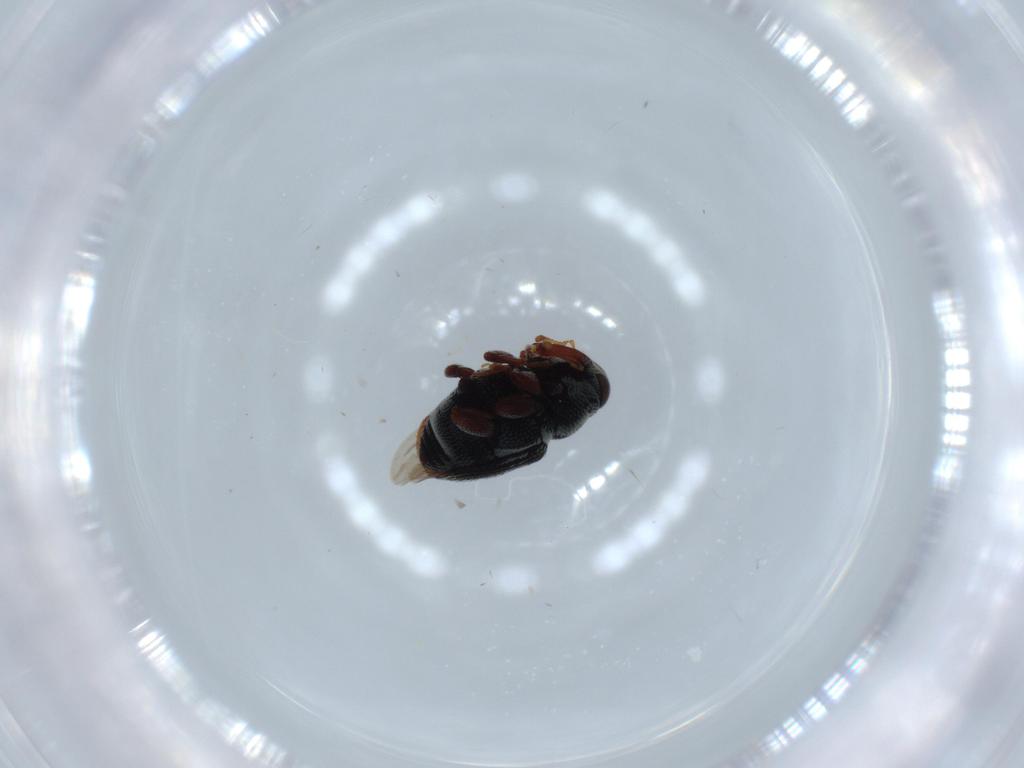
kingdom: Animalia
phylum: Arthropoda
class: Insecta
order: Coleoptera
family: Curculionidae
